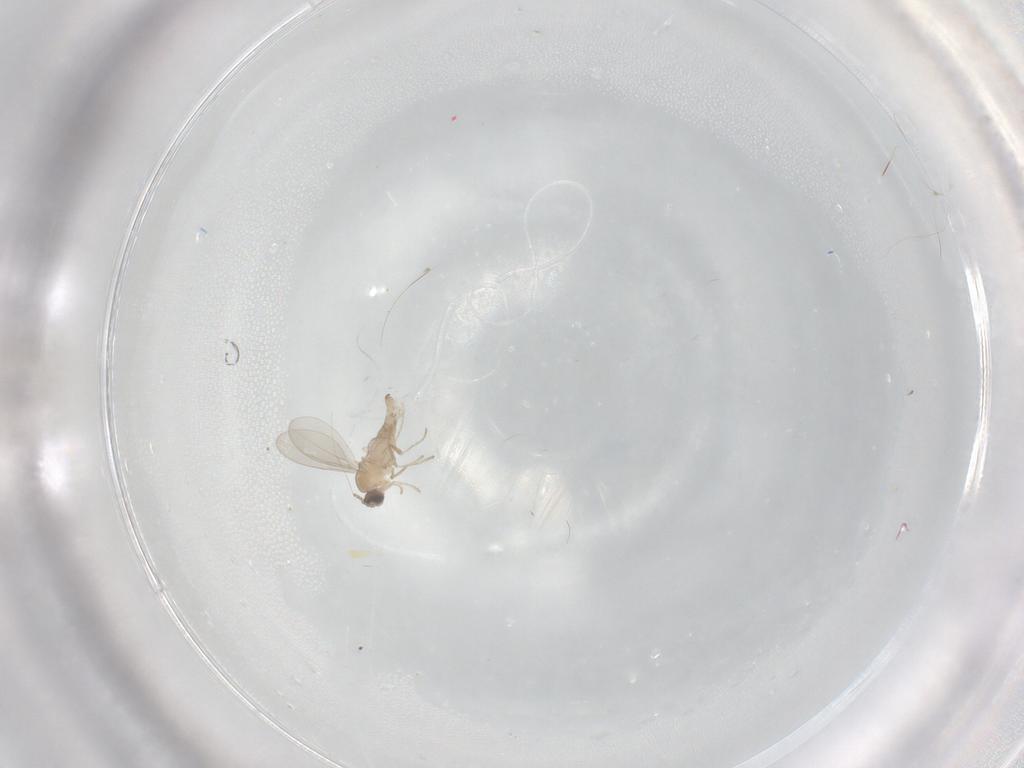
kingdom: Animalia
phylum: Arthropoda
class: Insecta
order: Diptera
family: Cecidomyiidae
